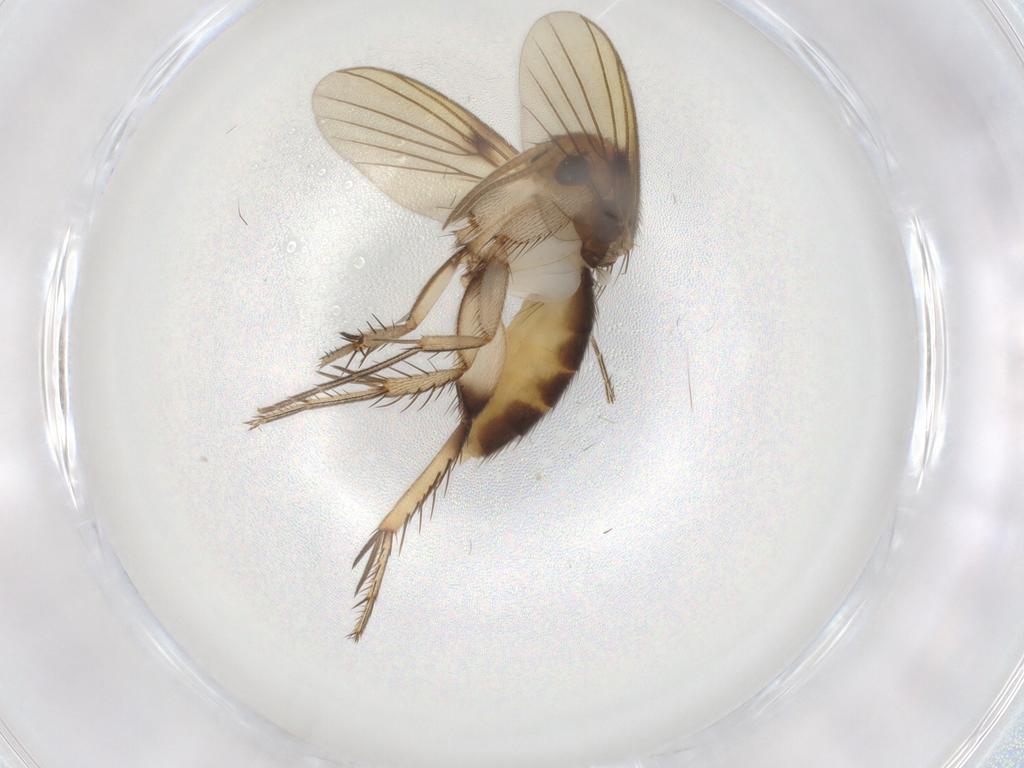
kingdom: Animalia
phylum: Arthropoda
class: Insecta
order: Diptera
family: Mycetophilidae
